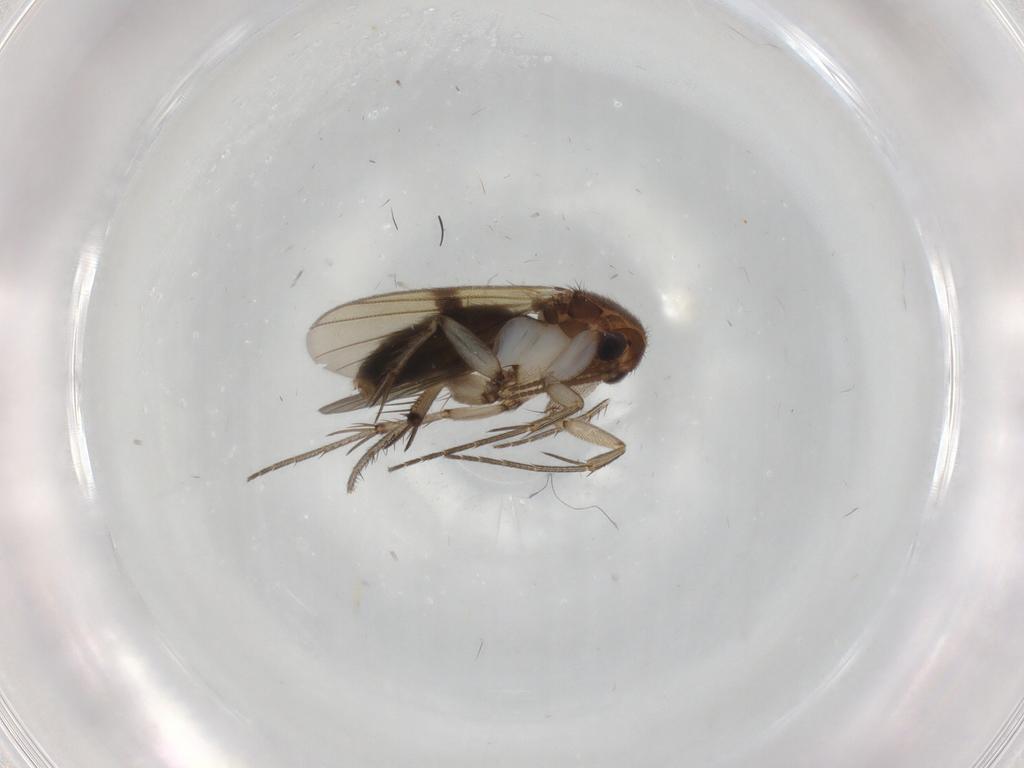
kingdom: Animalia
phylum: Arthropoda
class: Insecta
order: Diptera
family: Mycetophilidae
